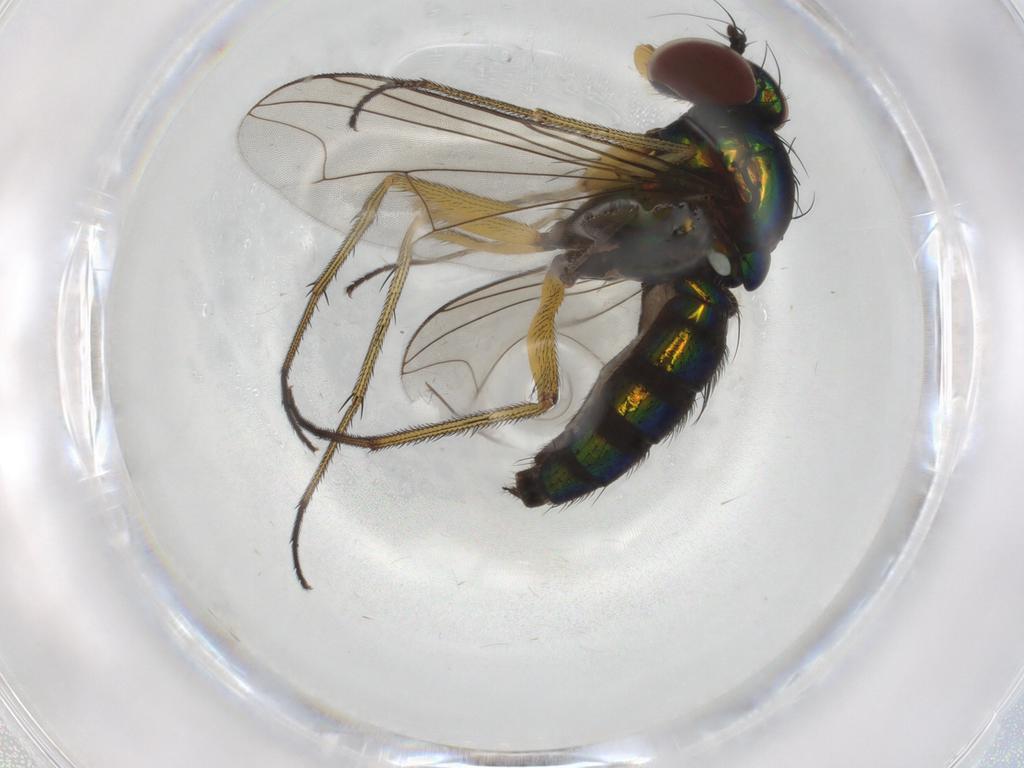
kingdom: Animalia
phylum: Arthropoda
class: Insecta
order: Diptera
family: Dolichopodidae
